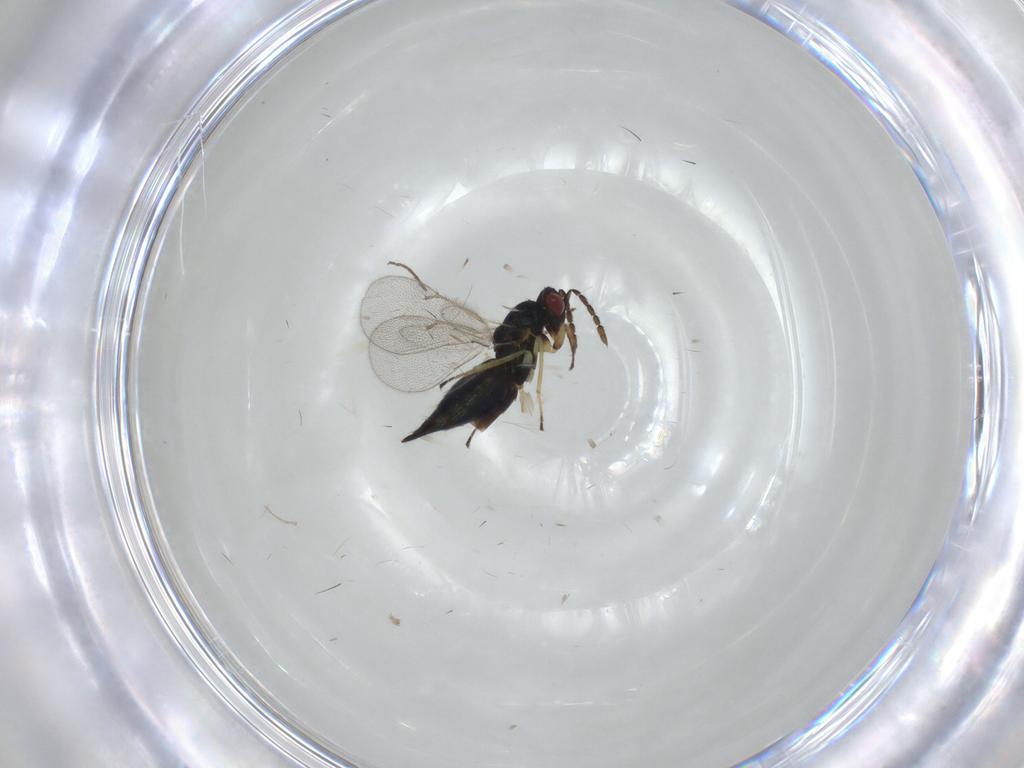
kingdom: Animalia
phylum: Arthropoda
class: Insecta
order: Hymenoptera
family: Eulophidae
